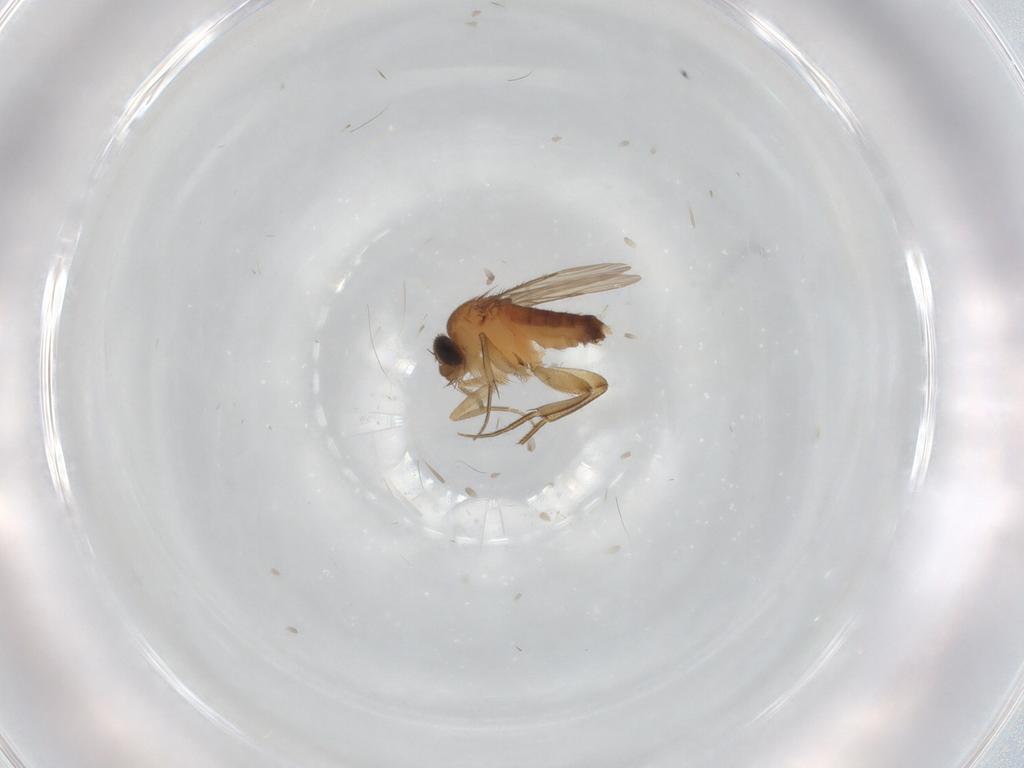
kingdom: Animalia
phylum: Arthropoda
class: Insecta
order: Diptera
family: Phoridae
